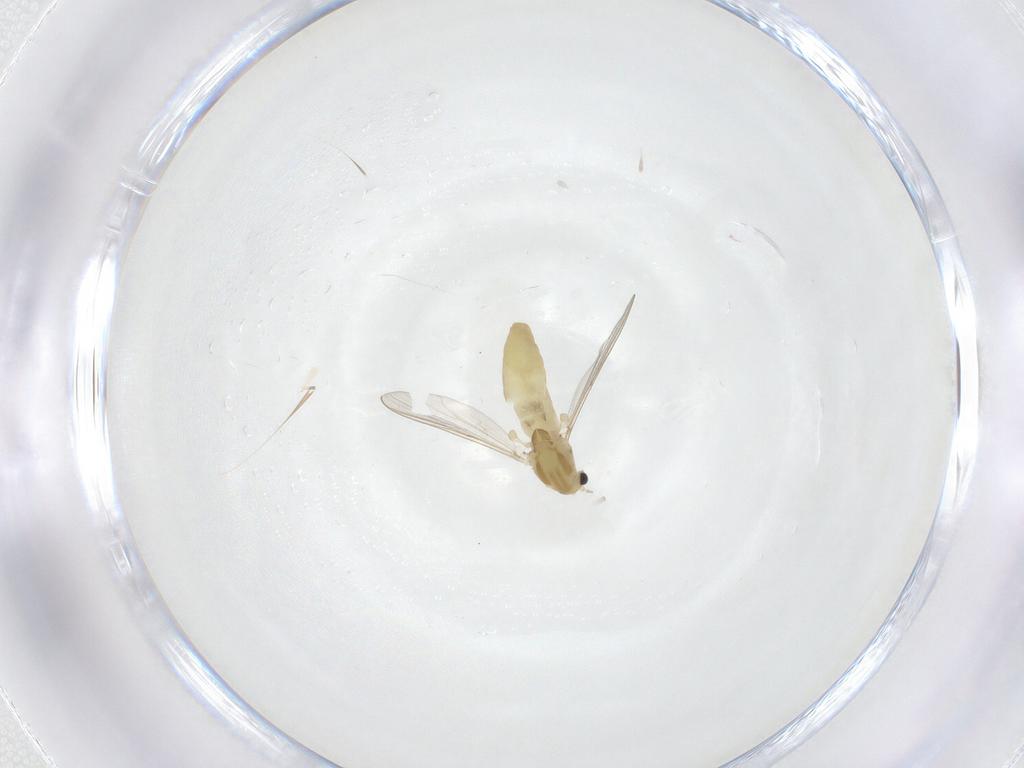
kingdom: Animalia
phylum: Arthropoda
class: Insecta
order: Diptera
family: Chironomidae
